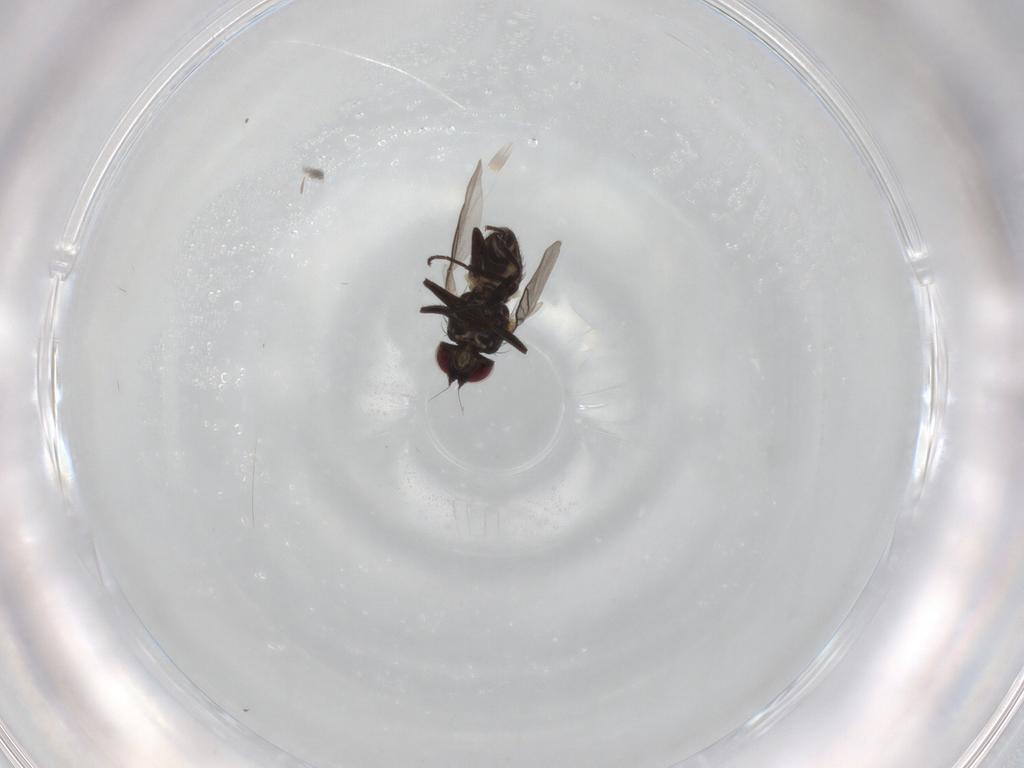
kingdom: Animalia
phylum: Arthropoda
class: Insecta
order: Diptera
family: Agromyzidae
